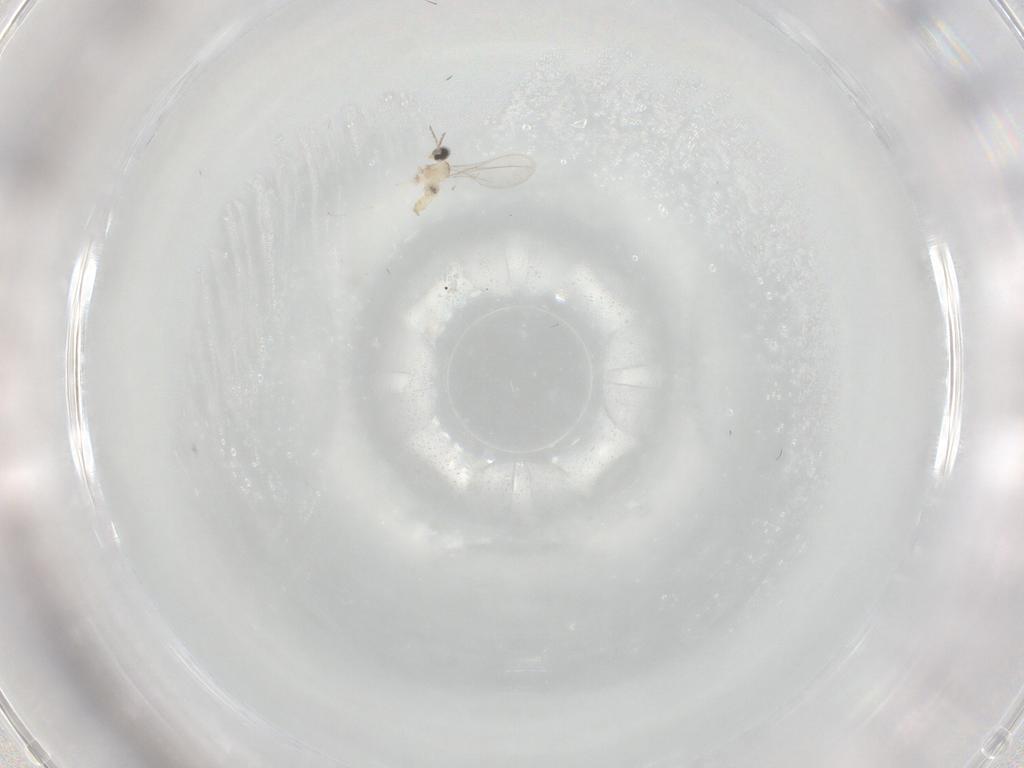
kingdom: Animalia
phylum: Arthropoda
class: Insecta
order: Diptera
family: Cecidomyiidae
